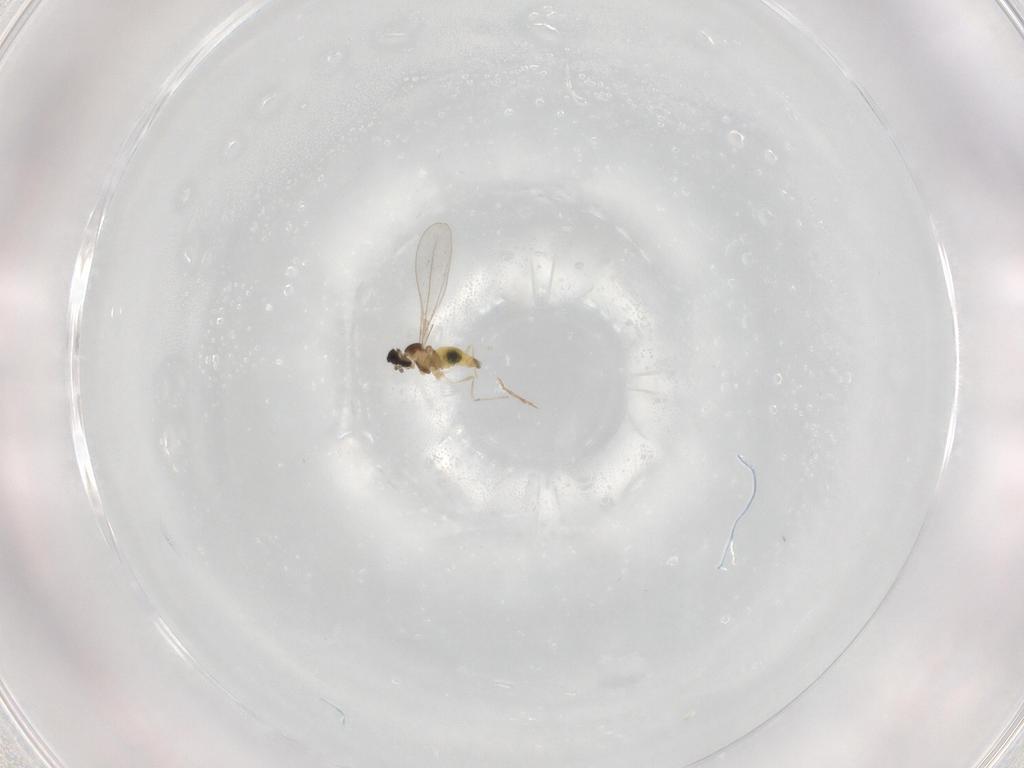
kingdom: Animalia
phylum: Arthropoda
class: Insecta
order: Diptera
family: Cecidomyiidae
